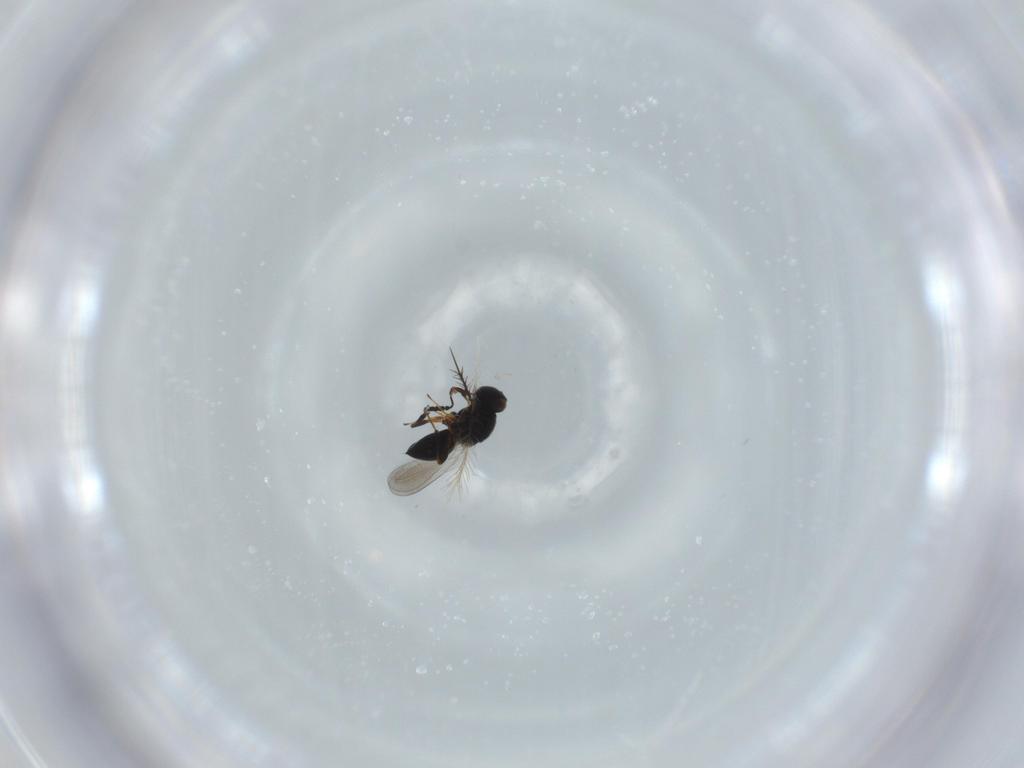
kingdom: Animalia
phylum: Arthropoda
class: Insecta
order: Hymenoptera
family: Platygastridae
